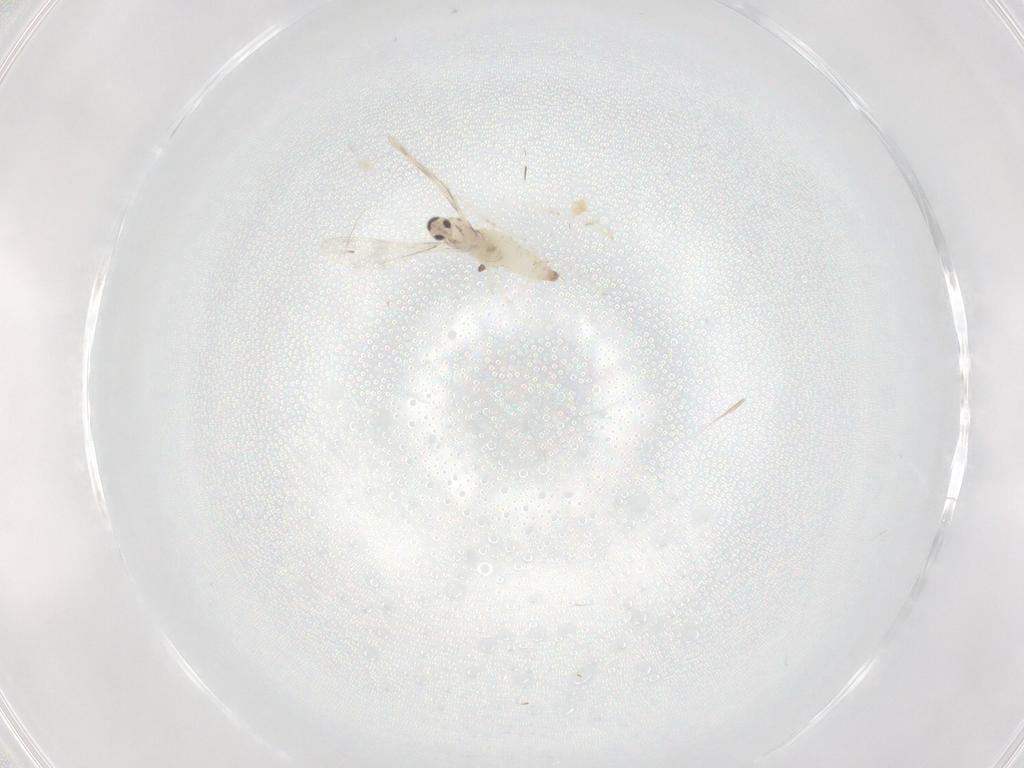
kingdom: Animalia
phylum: Arthropoda
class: Insecta
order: Diptera
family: Cecidomyiidae
